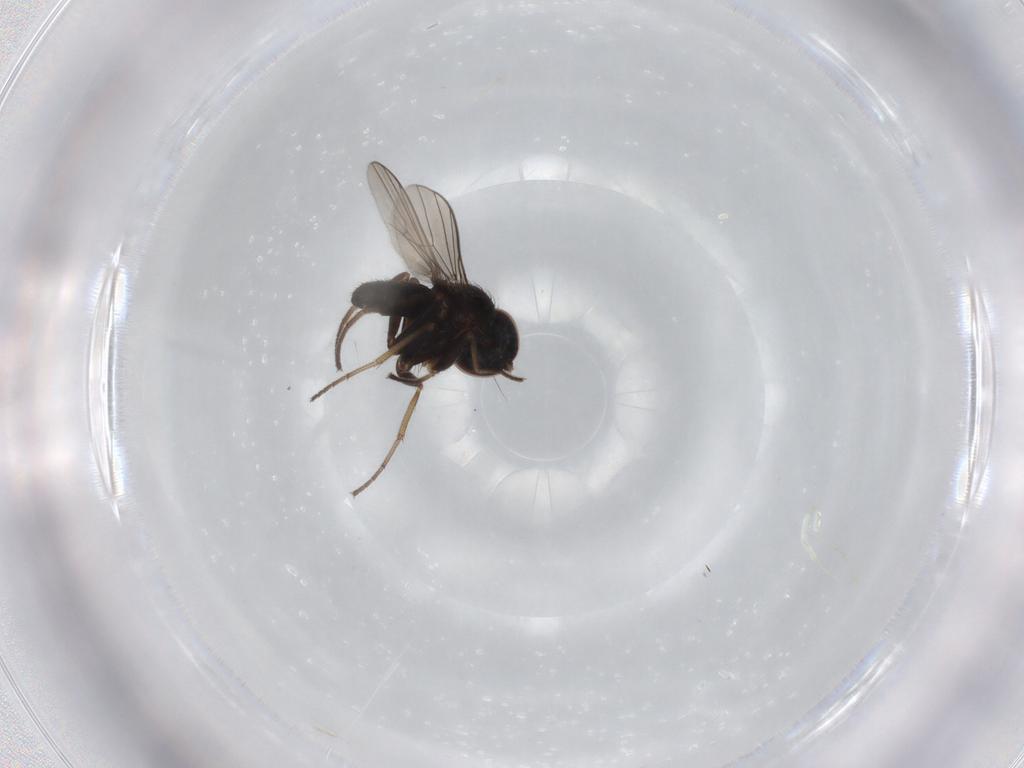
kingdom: Animalia
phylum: Arthropoda
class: Insecta
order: Diptera
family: Dolichopodidae
